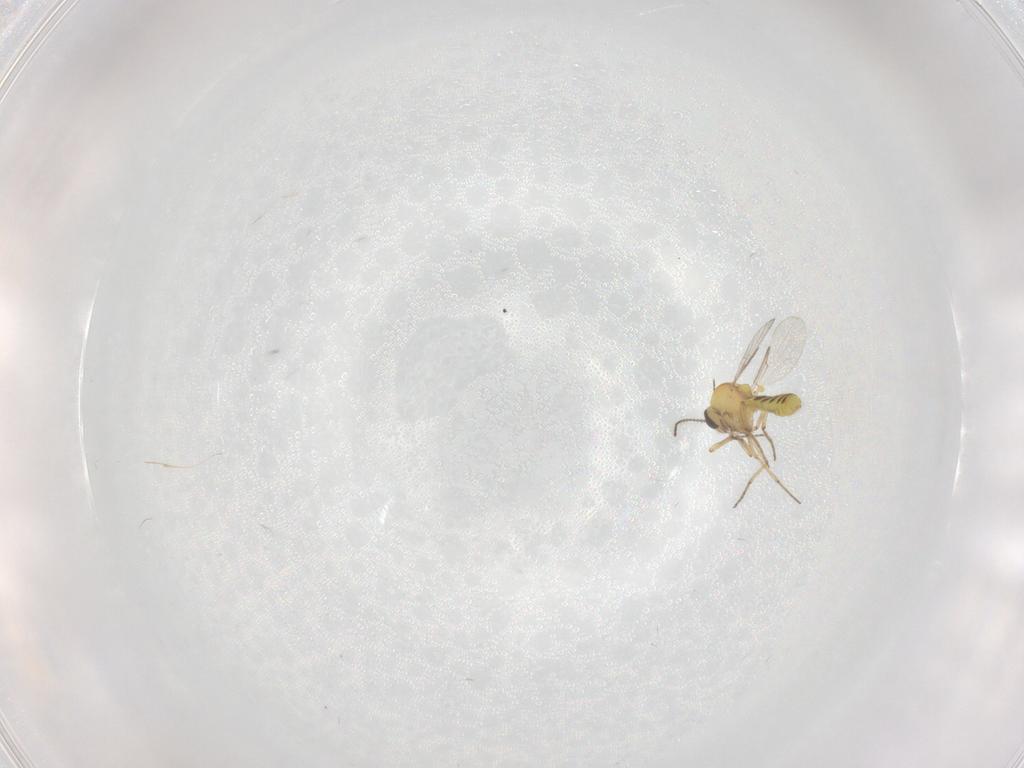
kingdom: Animalia
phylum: Arthropoda
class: Insecta
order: Diptera
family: Ceratopogonidae
